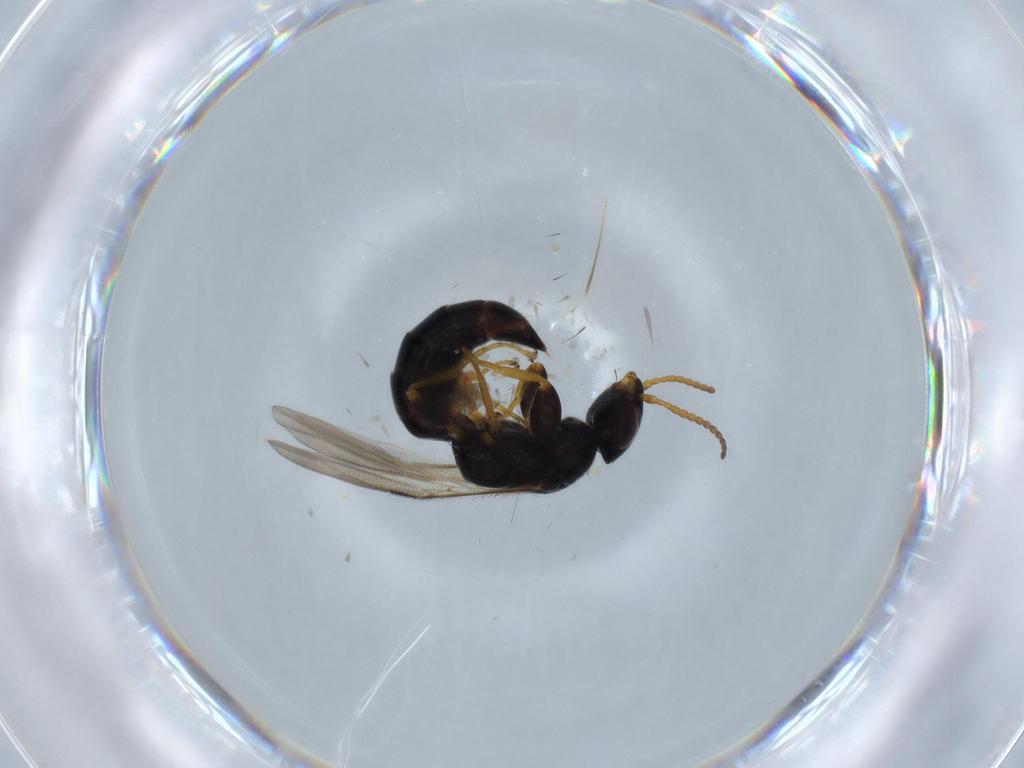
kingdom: Animalia
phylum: Arthropoda
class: Insecta
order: Hymenoptera
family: Bethylidae
